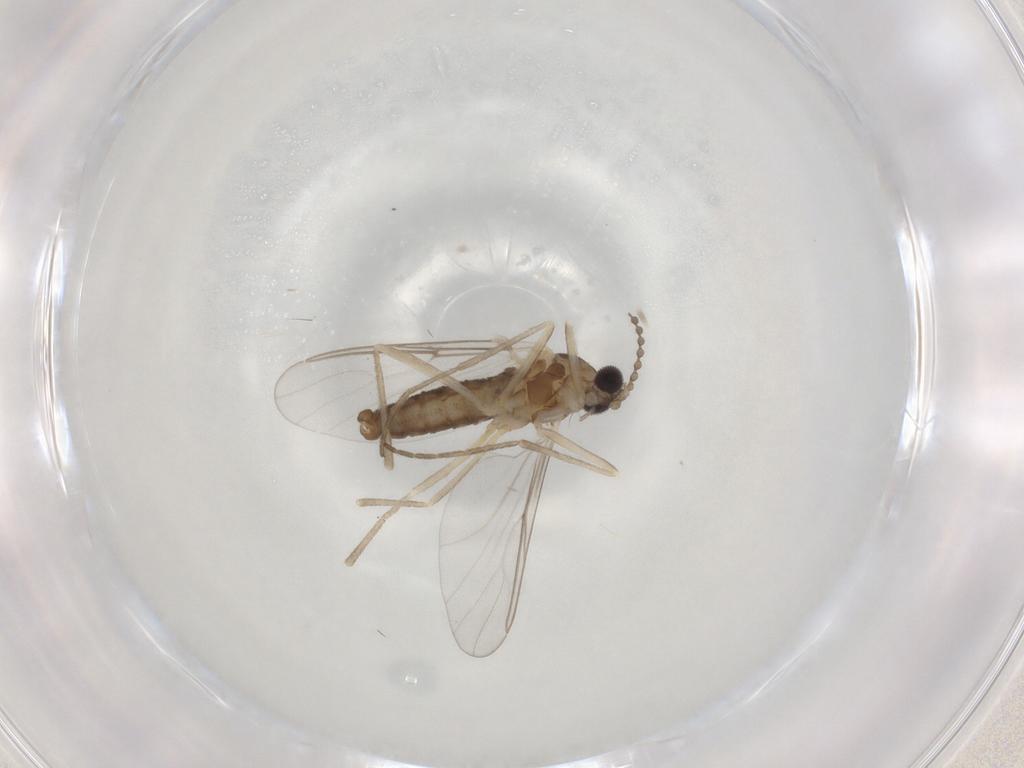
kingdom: Animalia
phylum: Arthropoda
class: Insecta
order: Diptera
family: Cecidomyiidae
